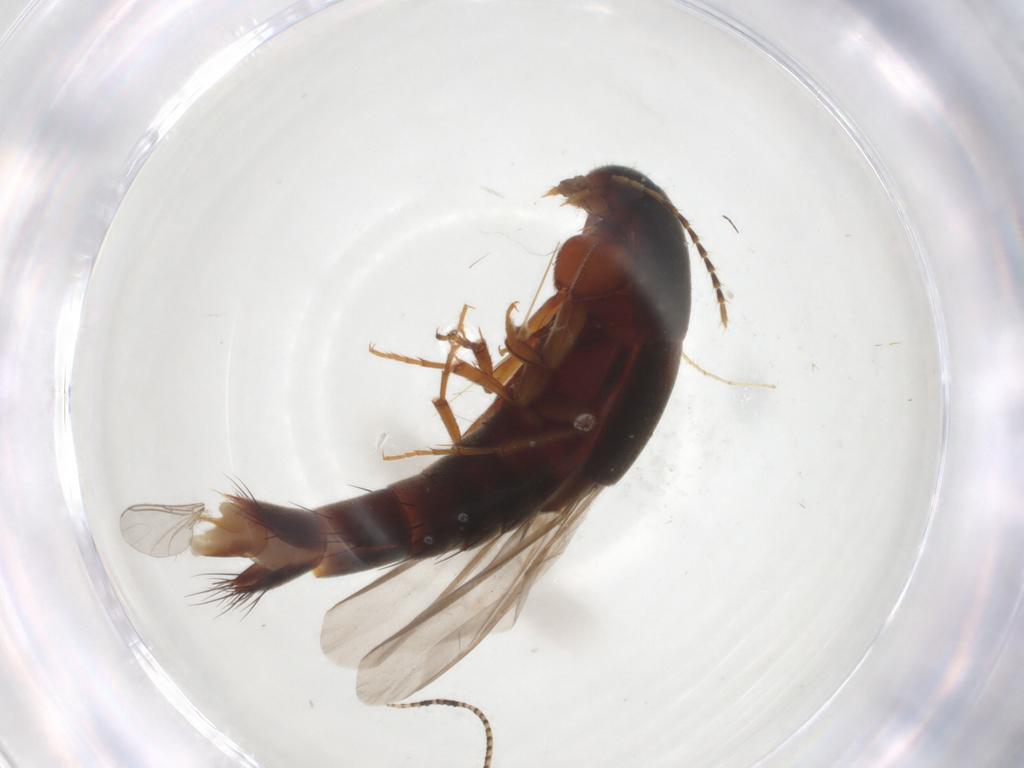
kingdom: Animalia
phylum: Arthropoda
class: Insecta
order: Coleoptera
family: Staphylinidae
